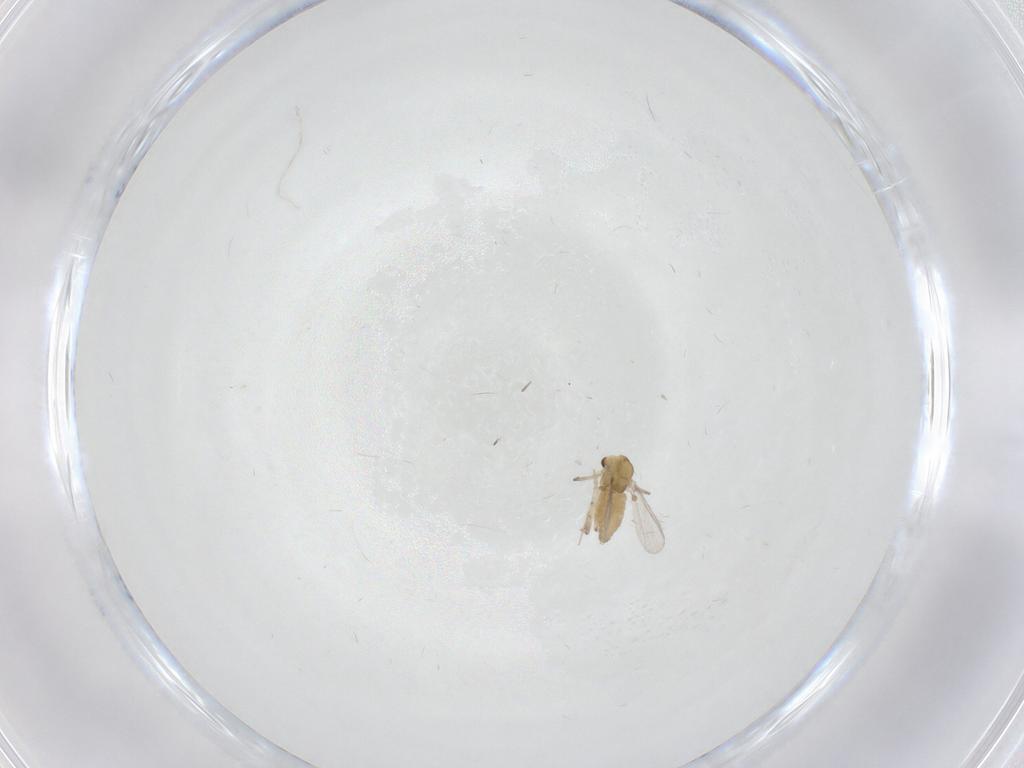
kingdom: Animalia
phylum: Arthropoda
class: Insecta
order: Diptera
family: Chironomidae
